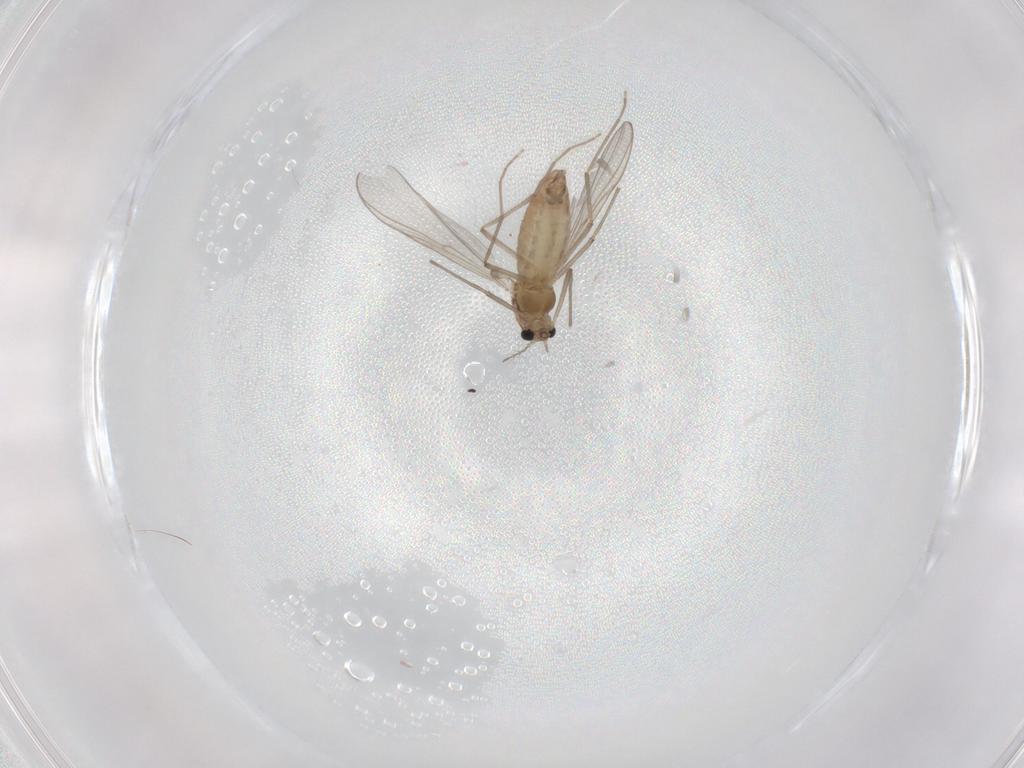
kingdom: Animalia
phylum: Arthropoda
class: Insecta
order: Diptera
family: Chironomidae
